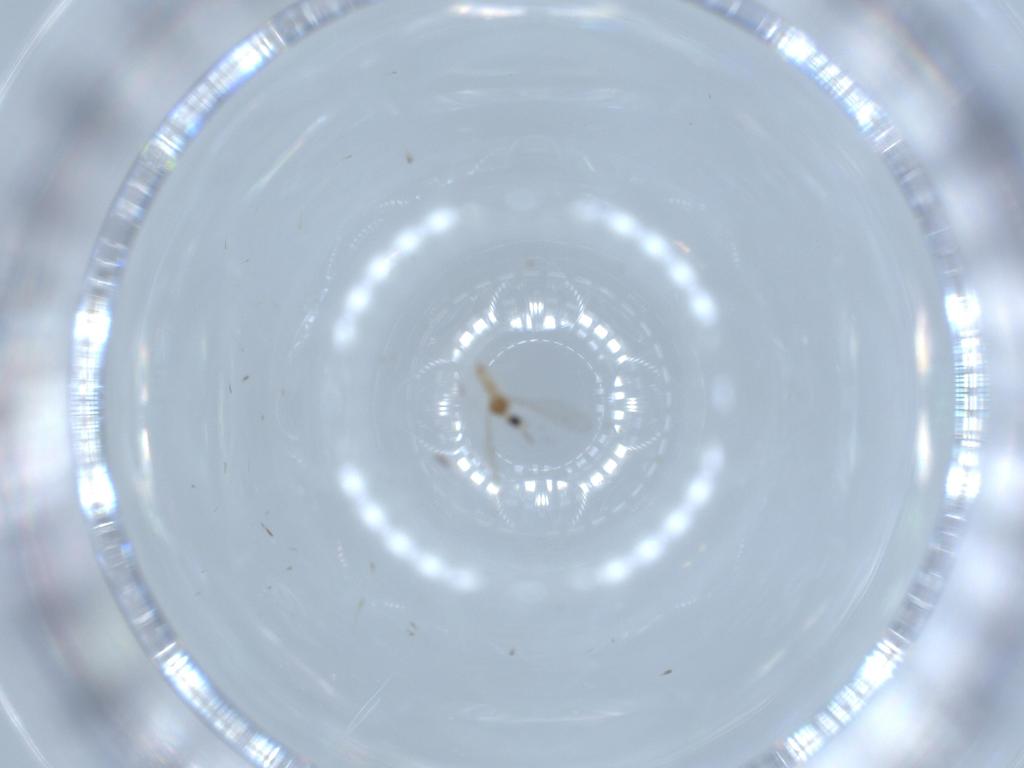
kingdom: Animalia
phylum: Arthropoda
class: Insecta
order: Diptera
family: Cecidomyiidae
